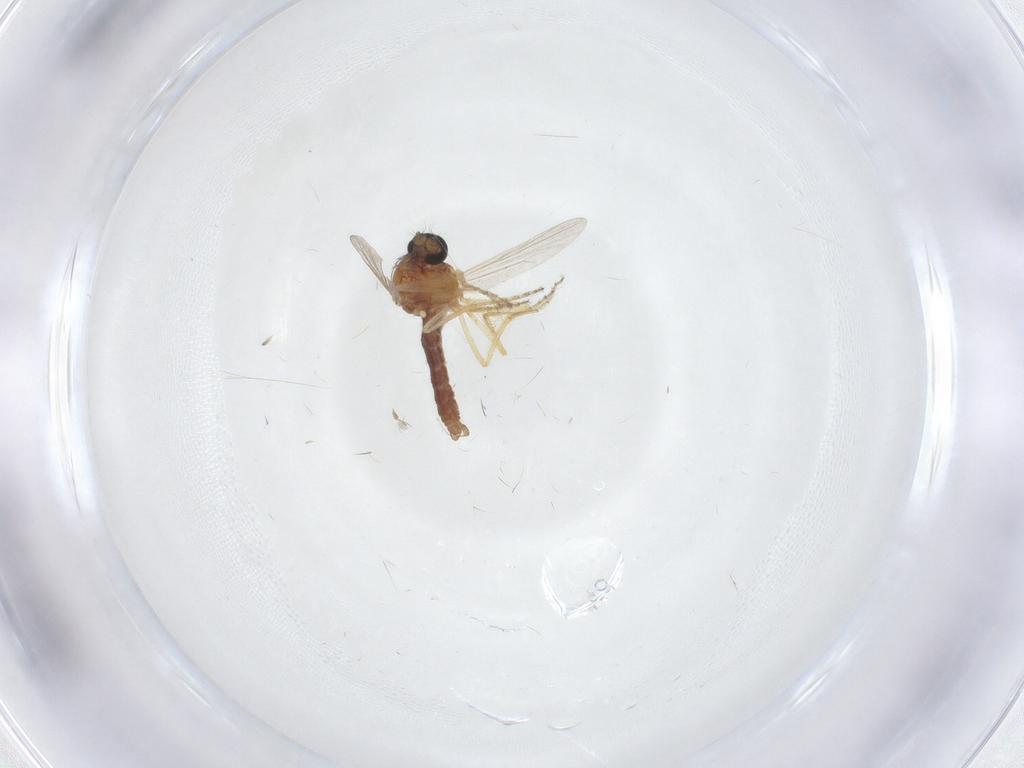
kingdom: Animalia
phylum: Arthropoda
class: Insecta
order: Diptera
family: Ceratopogonidae
